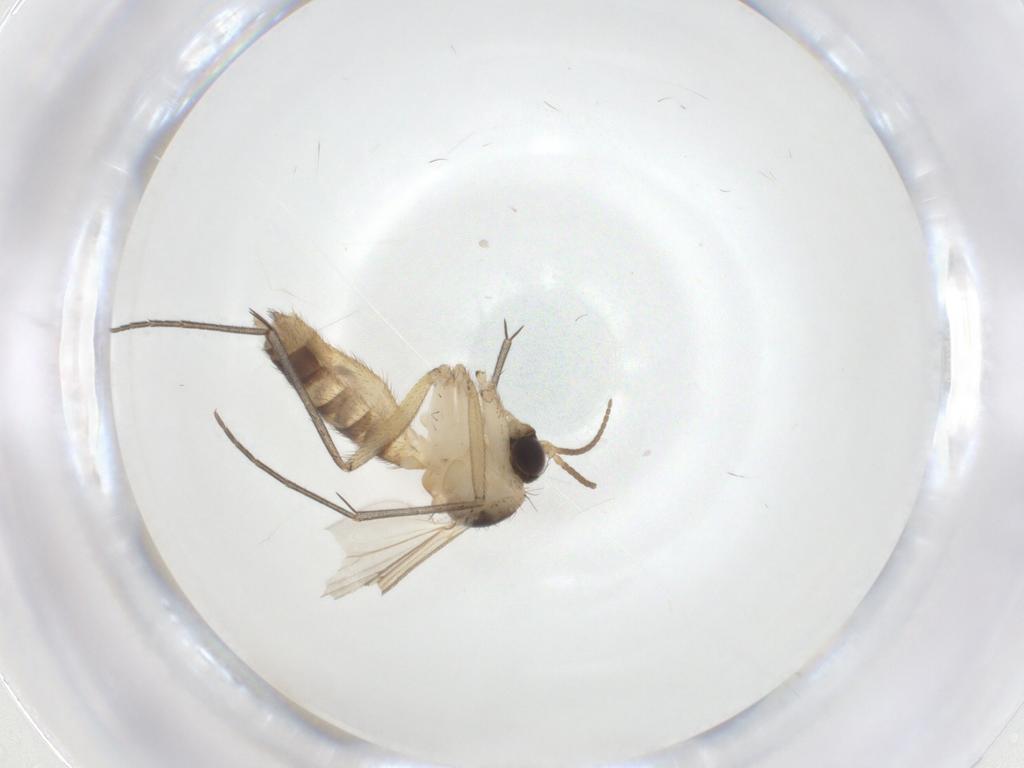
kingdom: Animalia
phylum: Arthropoda
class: Insecta
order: Diptera
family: Mycetophilidae
